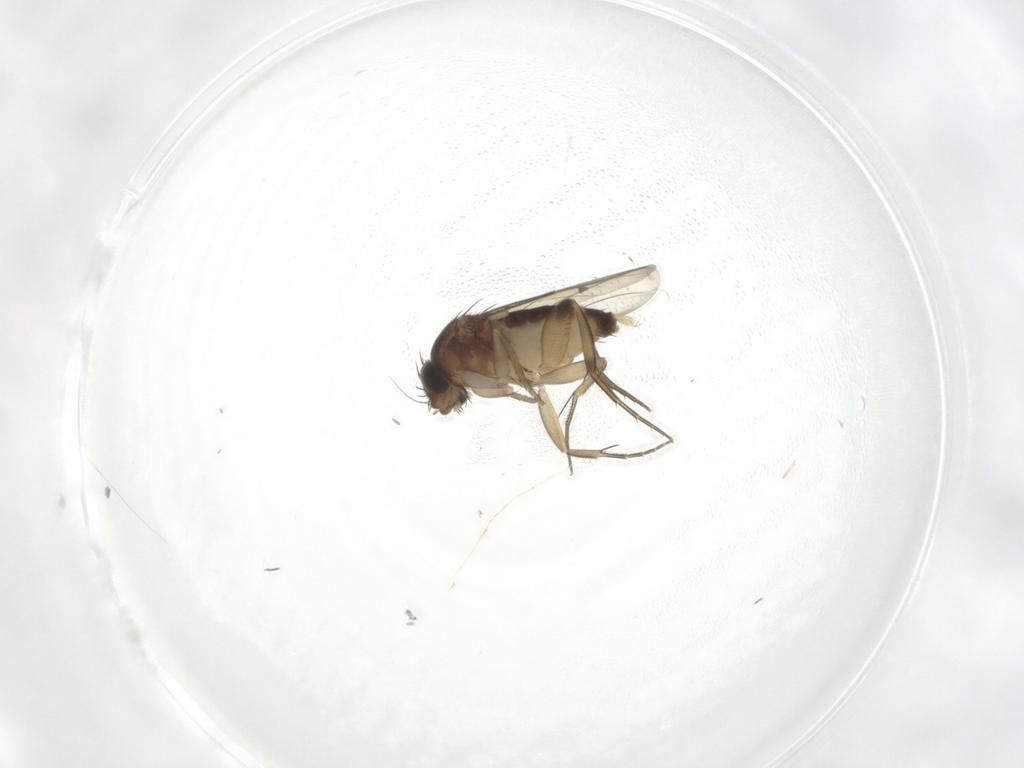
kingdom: Animalia
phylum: Arthropoda
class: Insecta
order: Diptera
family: Phoridae
